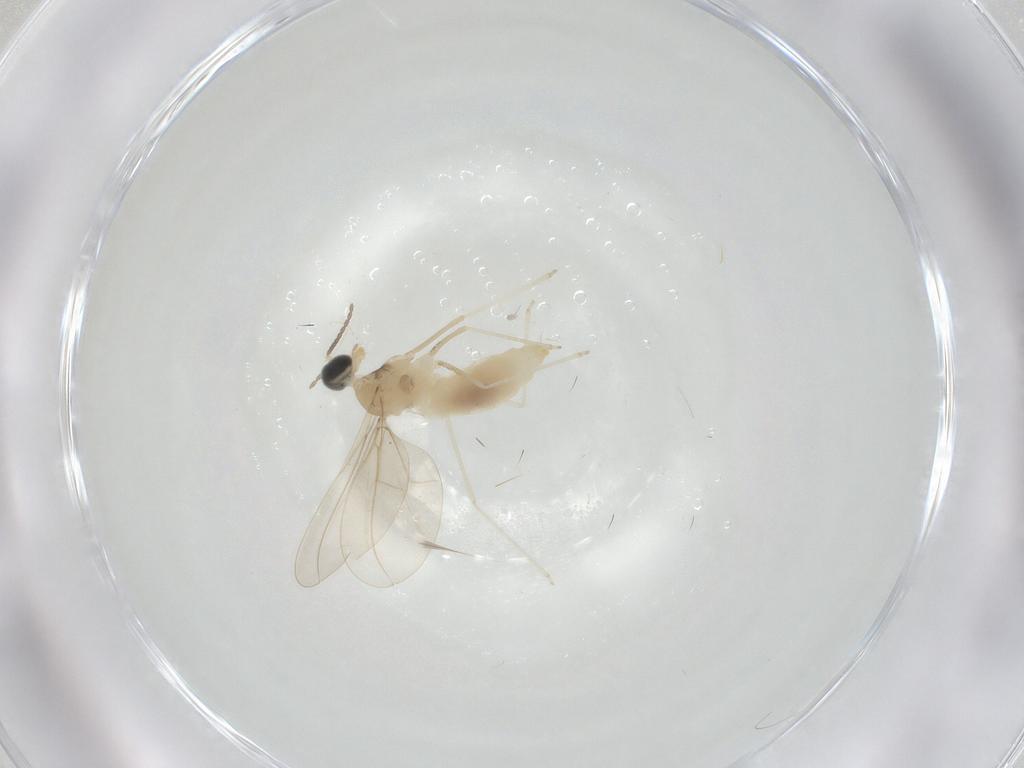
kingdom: Animalia
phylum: Arthropoda
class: Insecta
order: Diptera
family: Cecidomyiidae
